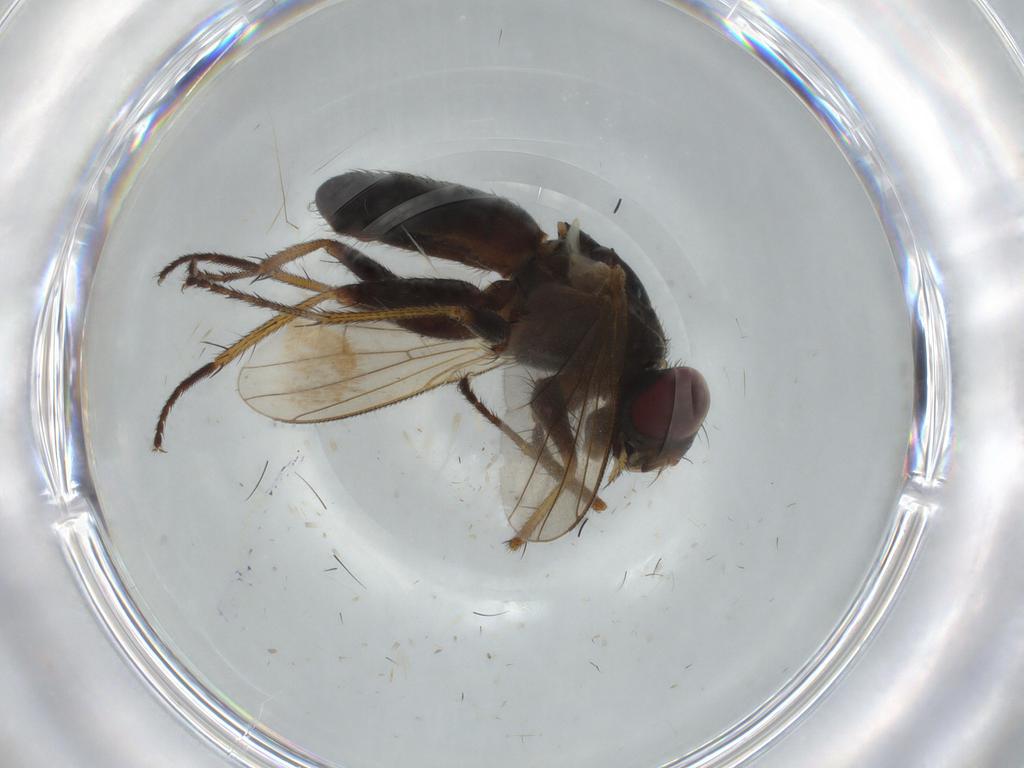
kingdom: Animalia
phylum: Arthropoda
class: Insecta
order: Diptera
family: Muscidae
